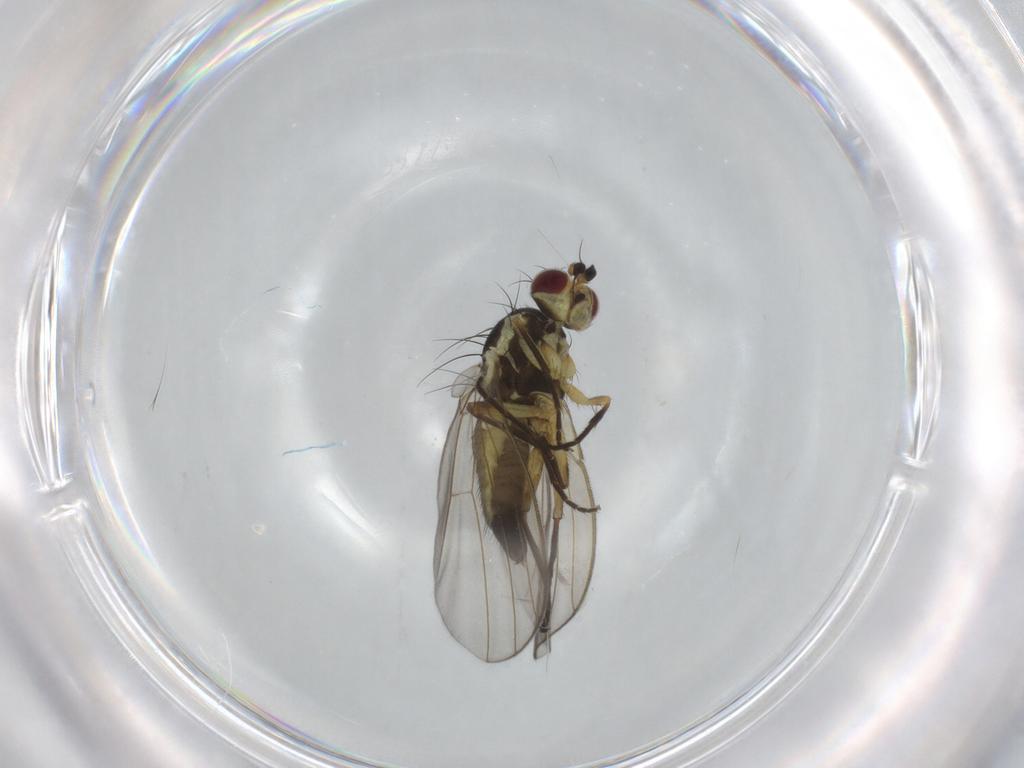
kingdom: Animalia
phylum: Arthropoda
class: Insecta
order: Diptera
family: Agromyzidae
